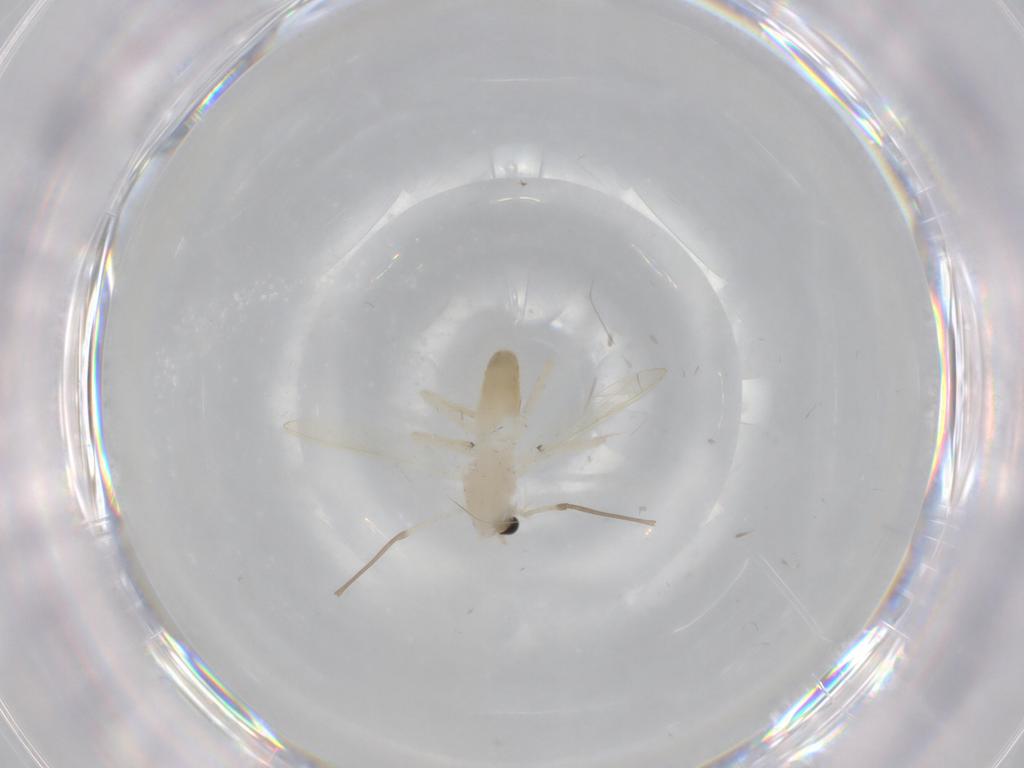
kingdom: Animalia
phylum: Arthropoda
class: Insecta
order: Diptera
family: Chironomidae
